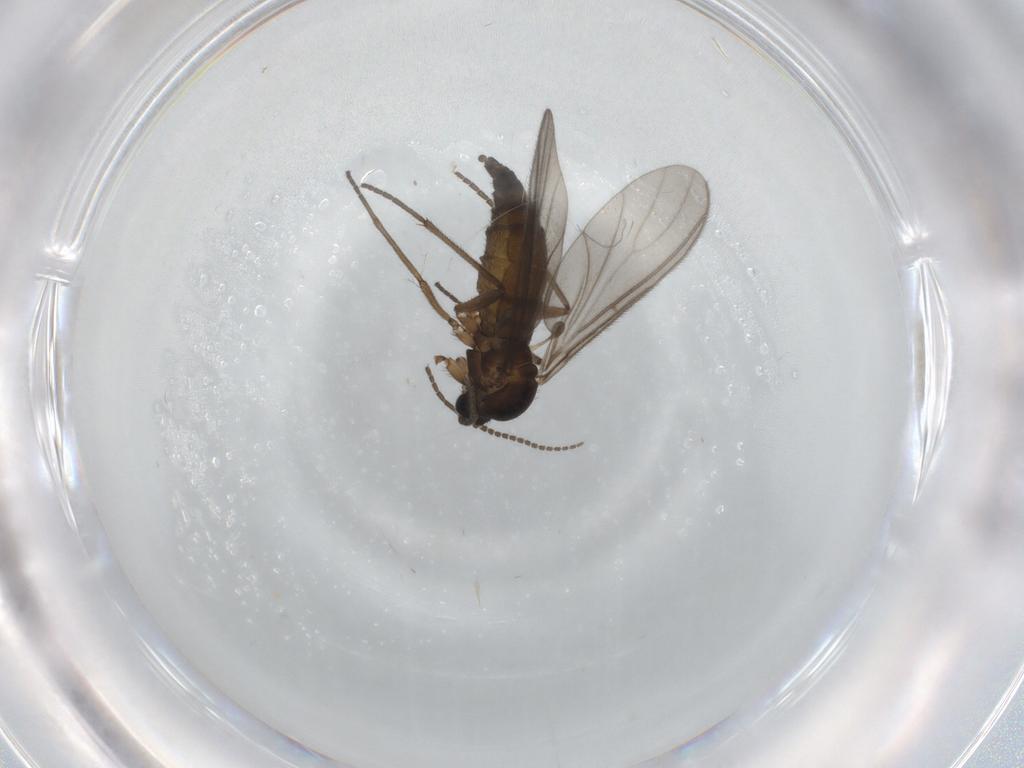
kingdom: Animalia
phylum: Arthropoda
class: Insecta
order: Diptera
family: Sciaridae
